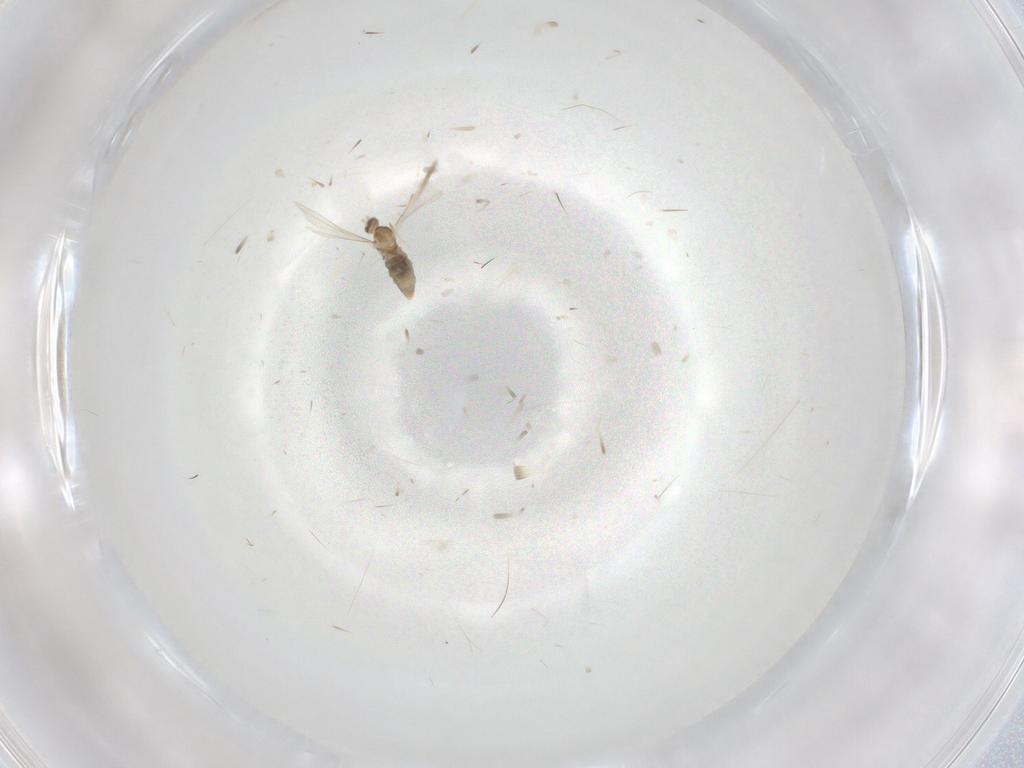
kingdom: Animalia
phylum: Arthropoda
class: Insecta
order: Diptera
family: Cecidomyiidae
